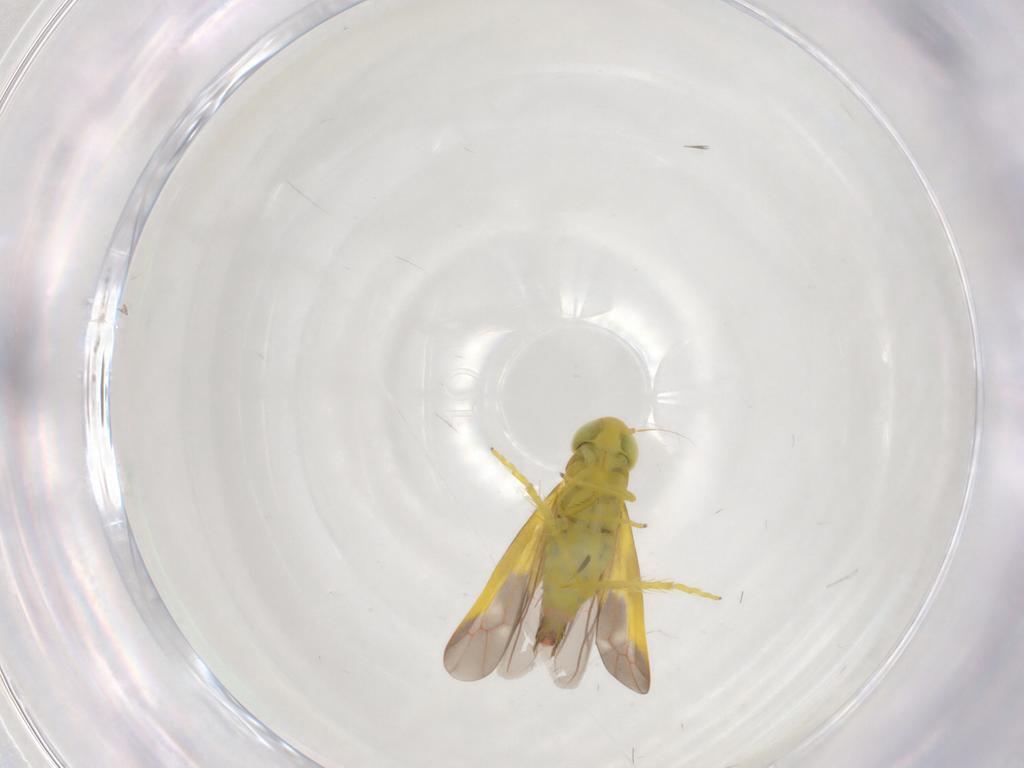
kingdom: Animalia
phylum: Arthropoda
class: Insecta
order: Hemiptera
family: Cicadellidae
